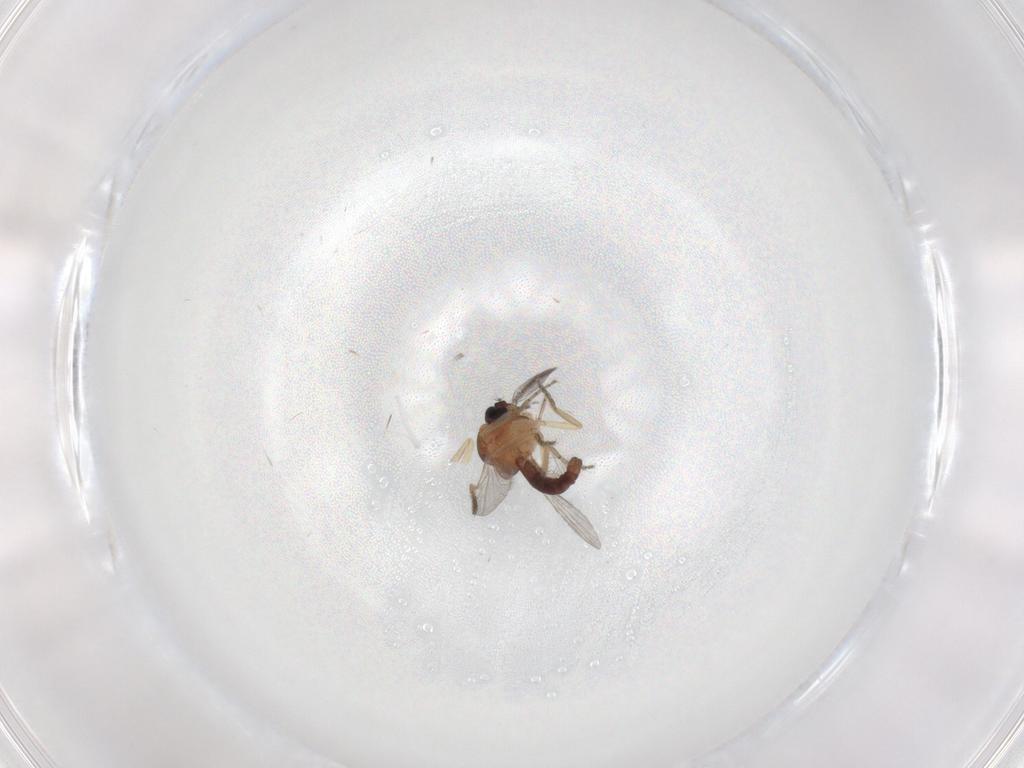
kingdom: Animalia
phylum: Arthropoda
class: Insecta
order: Diptera
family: Ceratopogonidae
